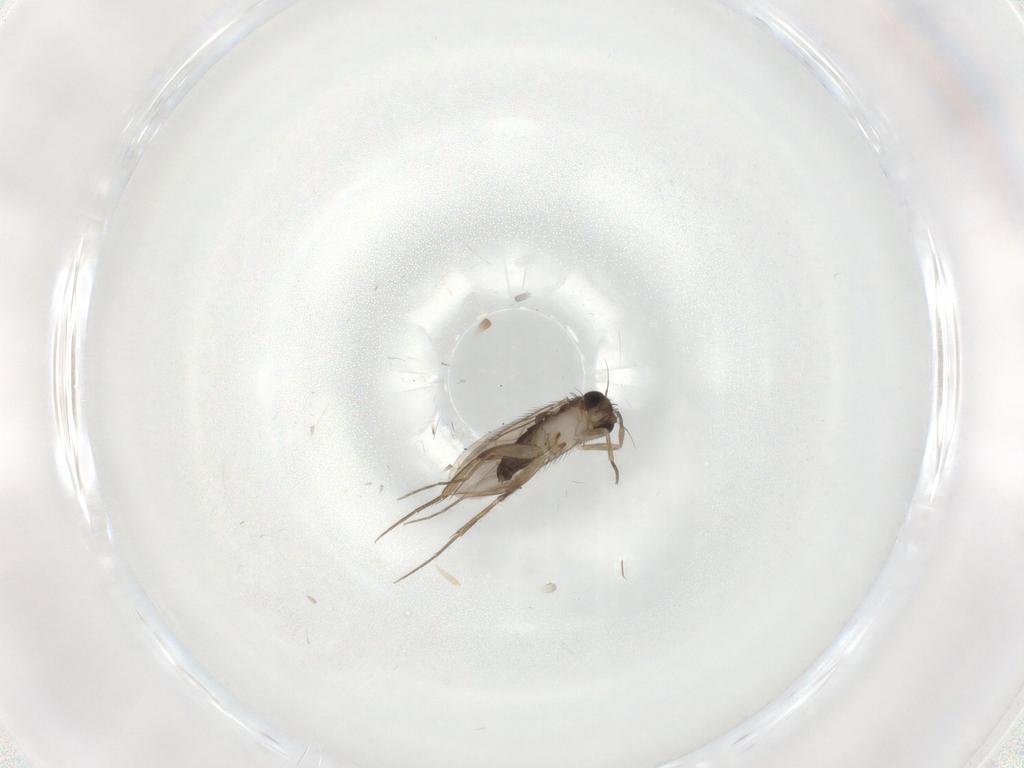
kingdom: Animalia
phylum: Arthropoda
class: Insecta
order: Diptera
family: Phoridae
